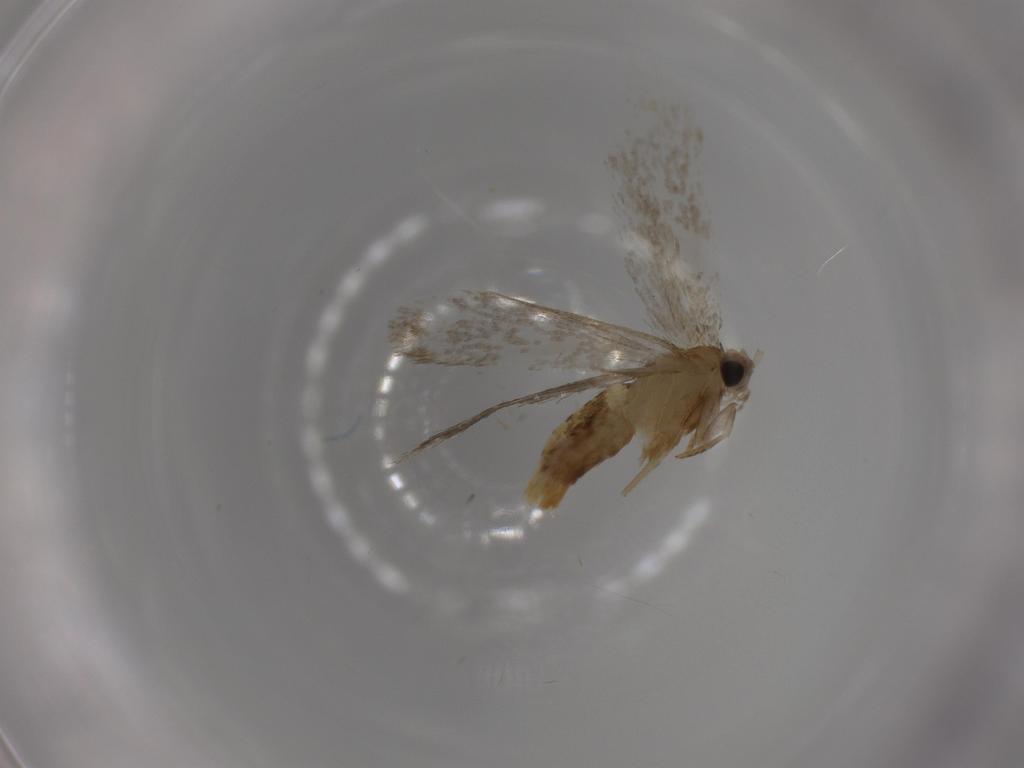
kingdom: Animalia
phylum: Arthropoda
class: Insecta
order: Lepidoptera
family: Tineidae
